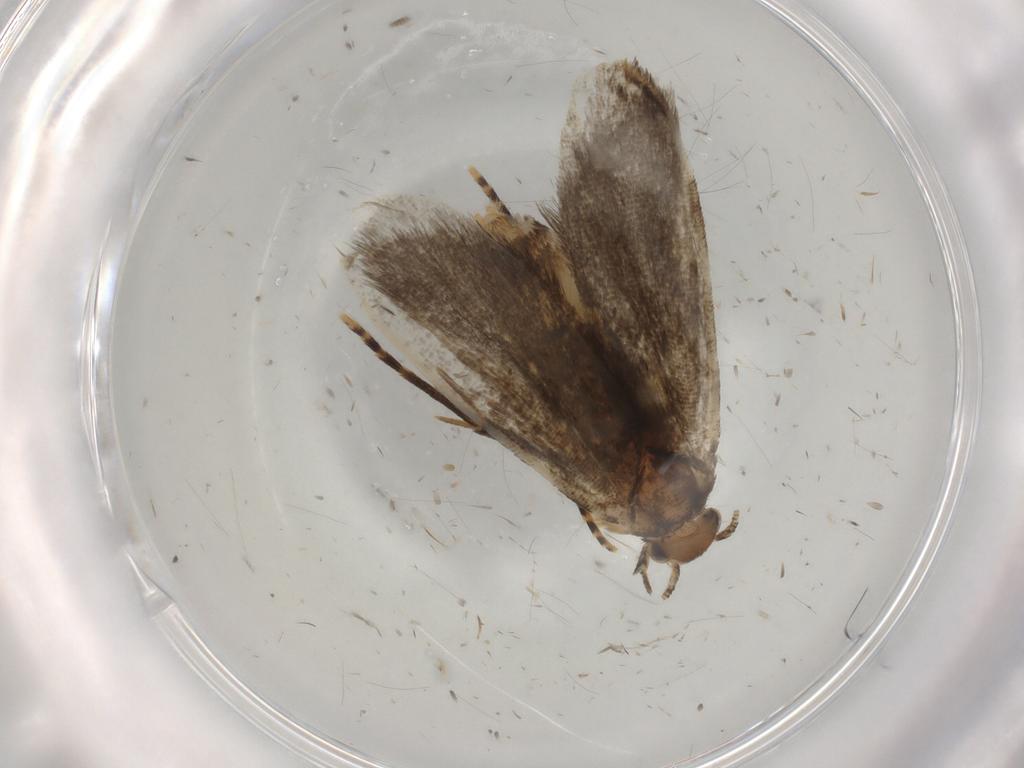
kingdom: Animalia
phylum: Arthropoda
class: Insecta
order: Lepidoptera
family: Dryadaulidae
